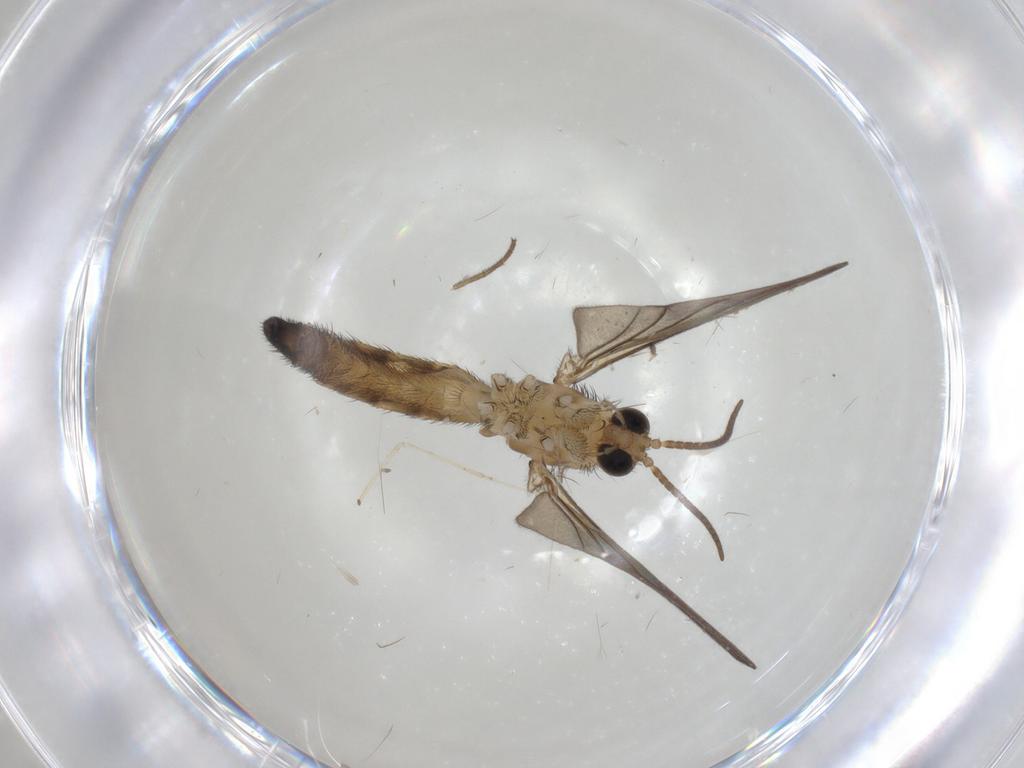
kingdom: Animalia
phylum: Arthropoda
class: Insecta
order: Diptera
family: Keroplatidae
